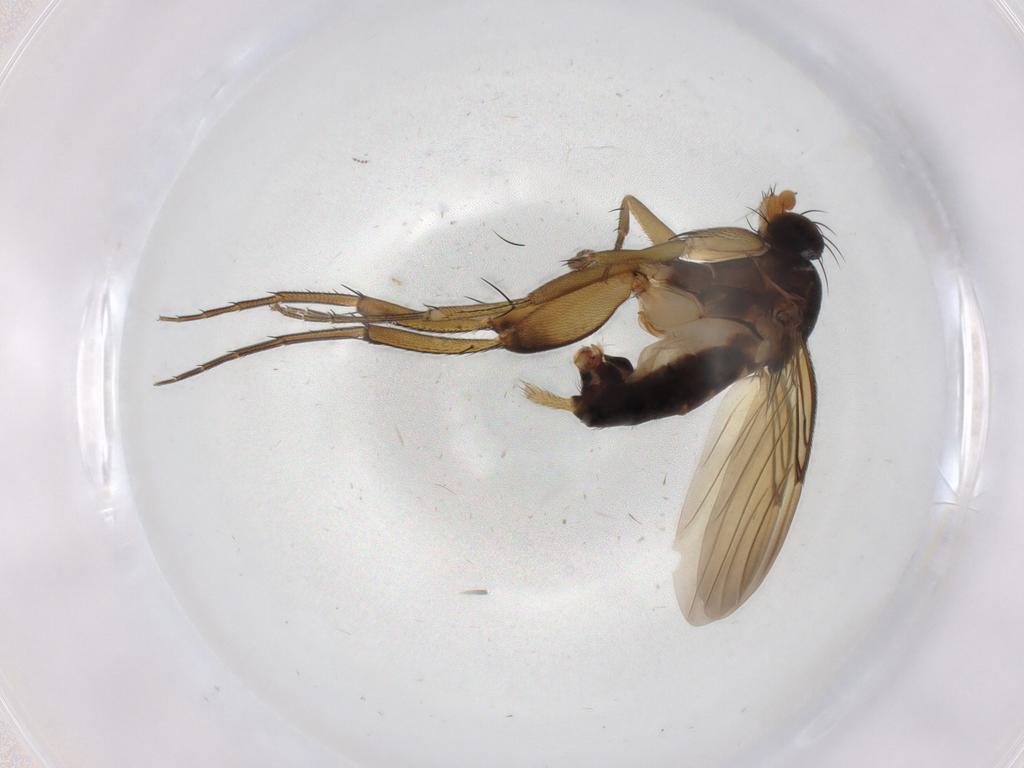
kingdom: Animalia
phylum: Arthropoda
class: Insecta
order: Diptera
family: Phoridae
